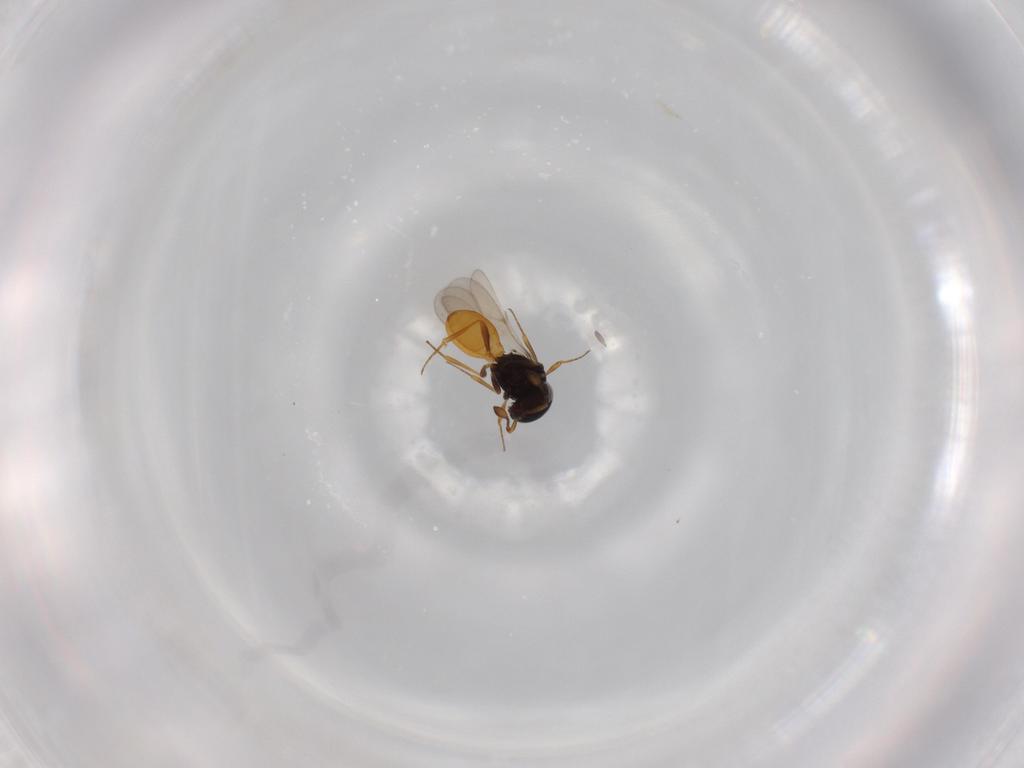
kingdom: Animalia
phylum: Arthropoda
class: Insecta
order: Hymenoptera
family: Scelionidae
